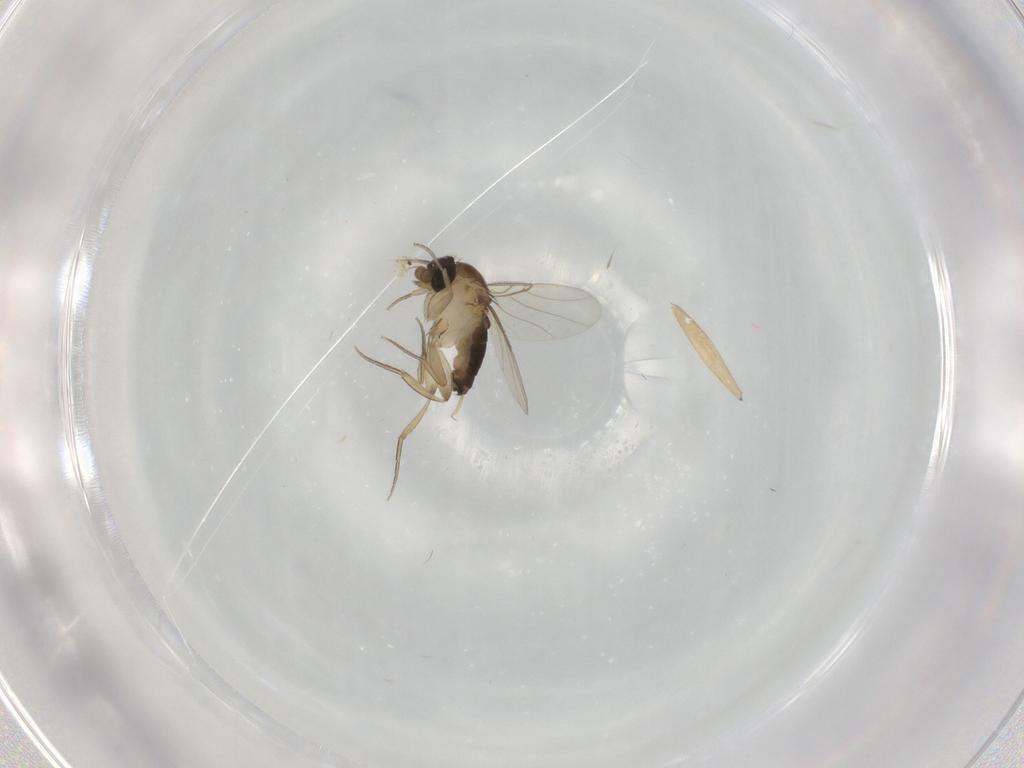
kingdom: Animalia
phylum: Arthropoda
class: Insecta
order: Diptera
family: Phoridae
